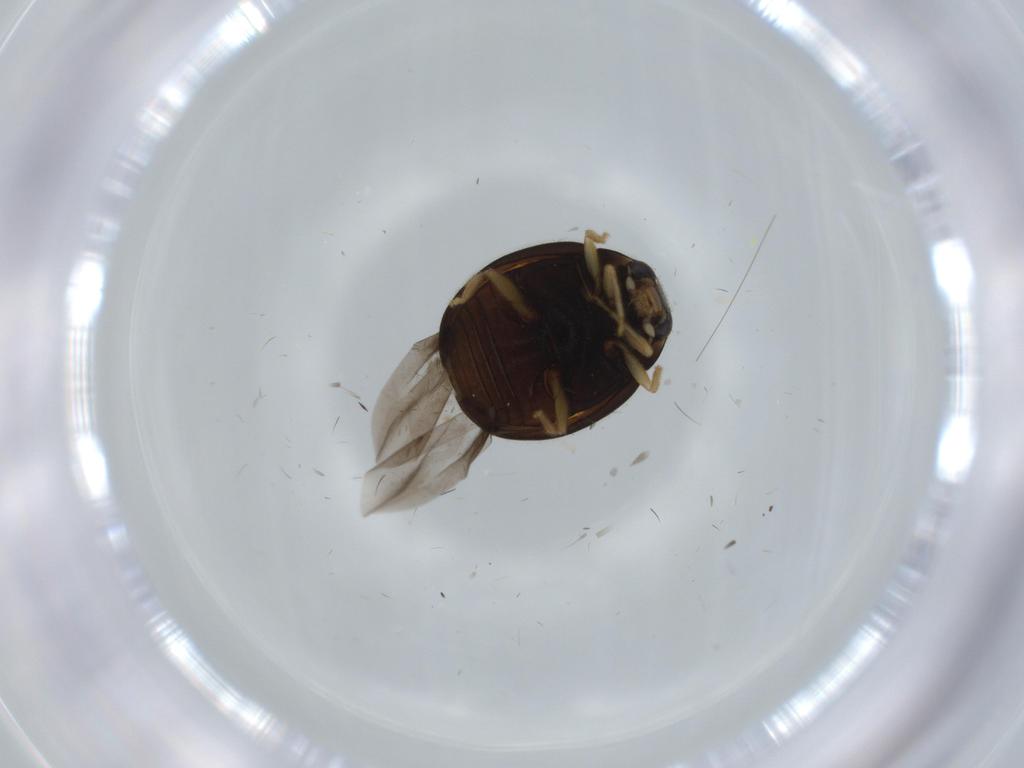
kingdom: Animalia
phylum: Arthropoda
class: Insecta
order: Coleoptera
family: Coccinellidae
